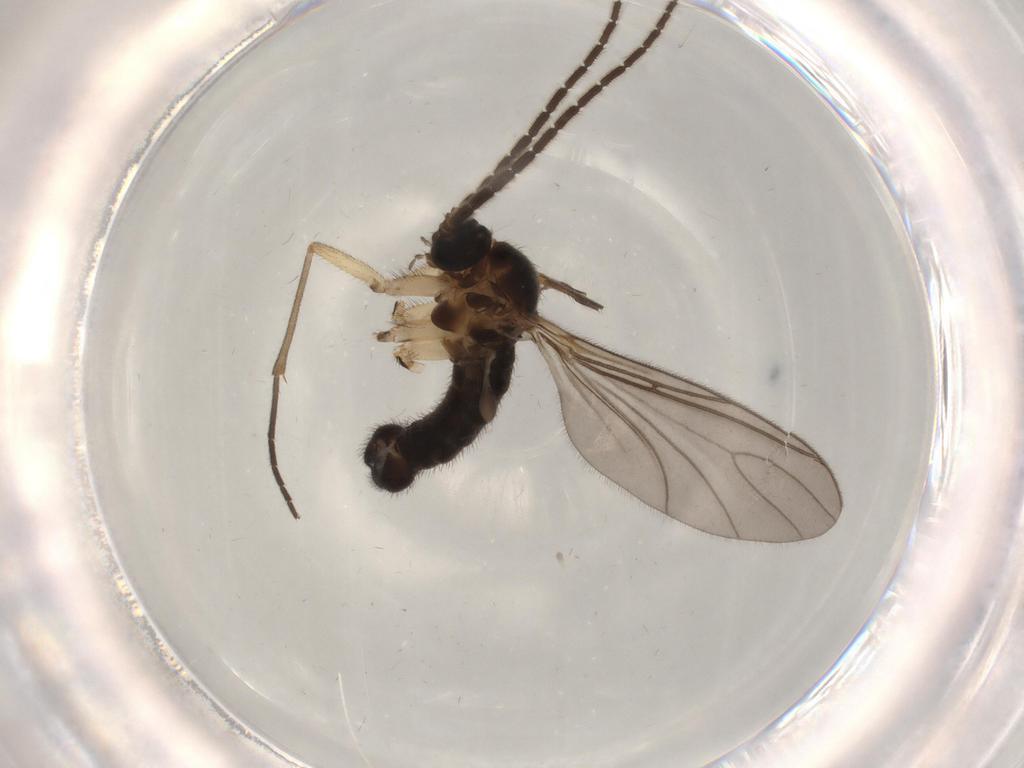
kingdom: Animalia
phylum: Arthropoda
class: Insecta
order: Diptera
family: Sciaridae
